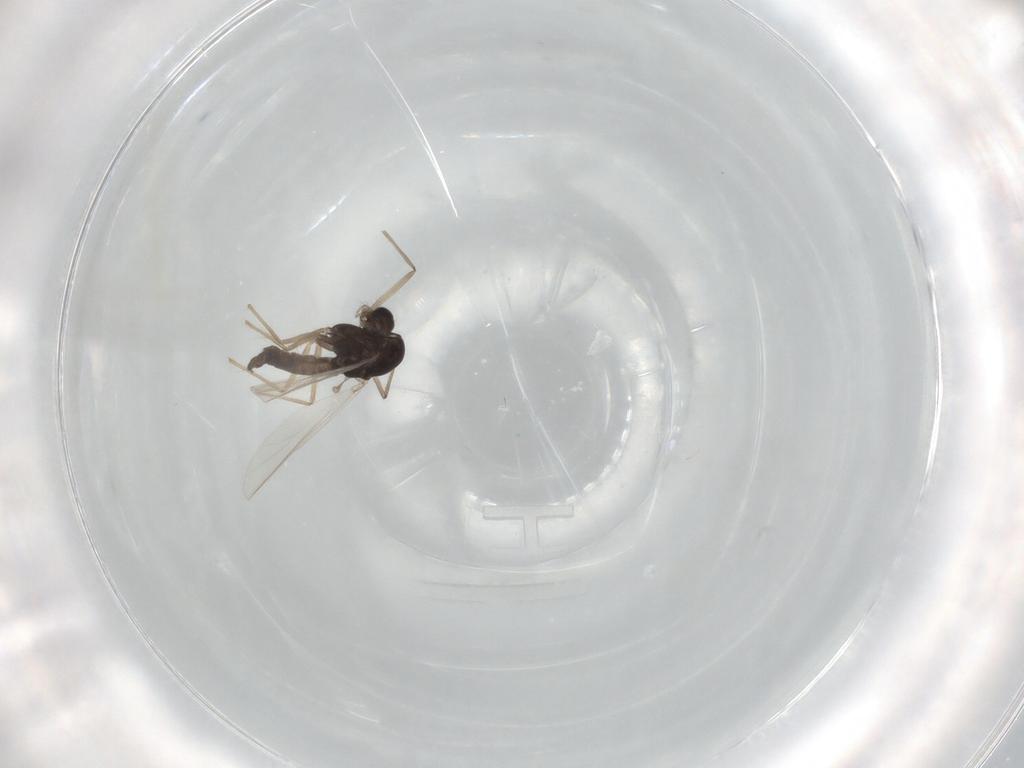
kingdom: Animalia
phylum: Arthropoda
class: Insecta
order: Diptera
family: Chironomidae
